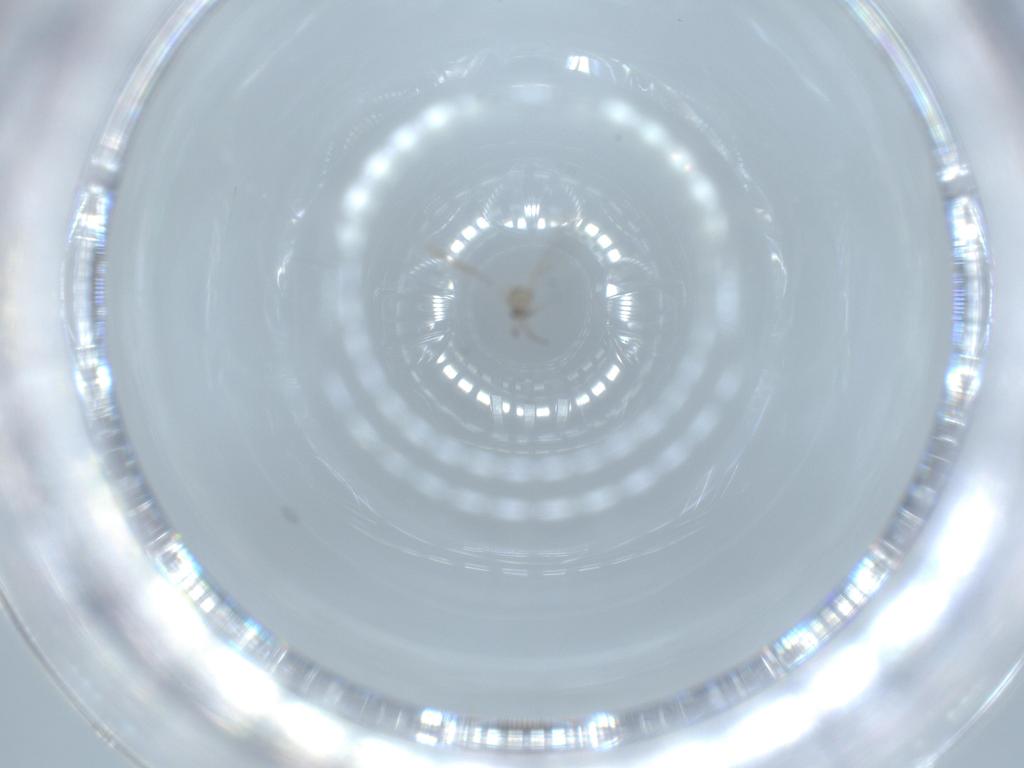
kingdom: Animalia
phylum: Arthropoda
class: Insecta
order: Diptera
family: Cecidomyiidae
